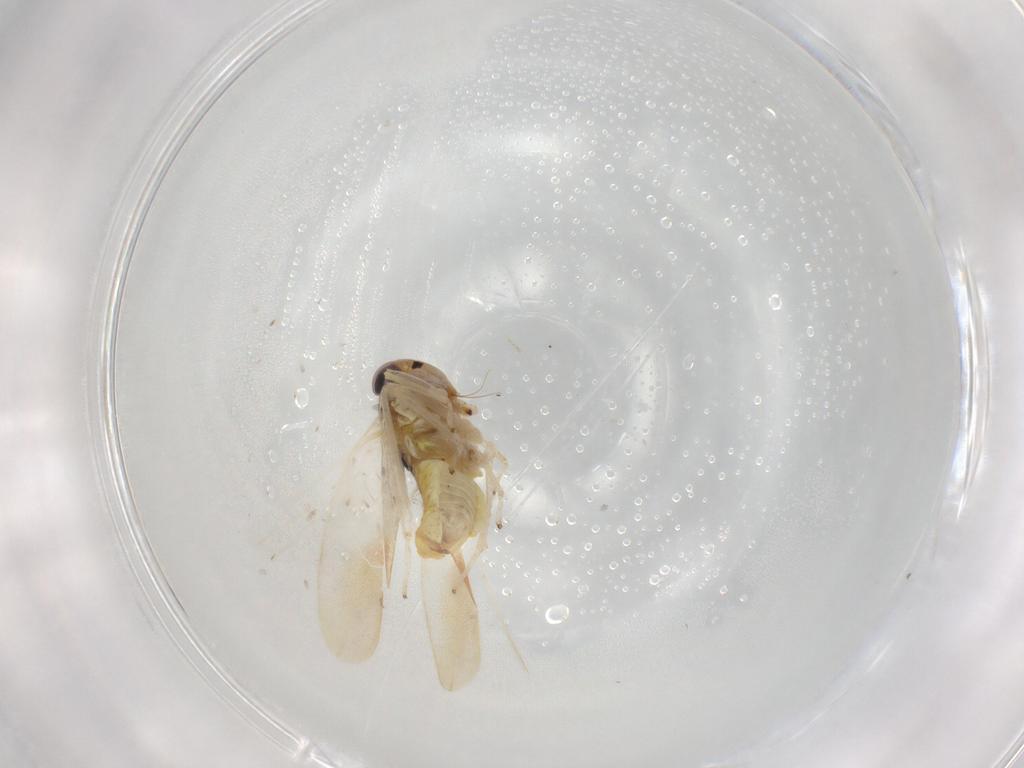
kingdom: Animalia
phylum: Arthropoda
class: Insecta
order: Hemiptera
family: Cicadellidae
